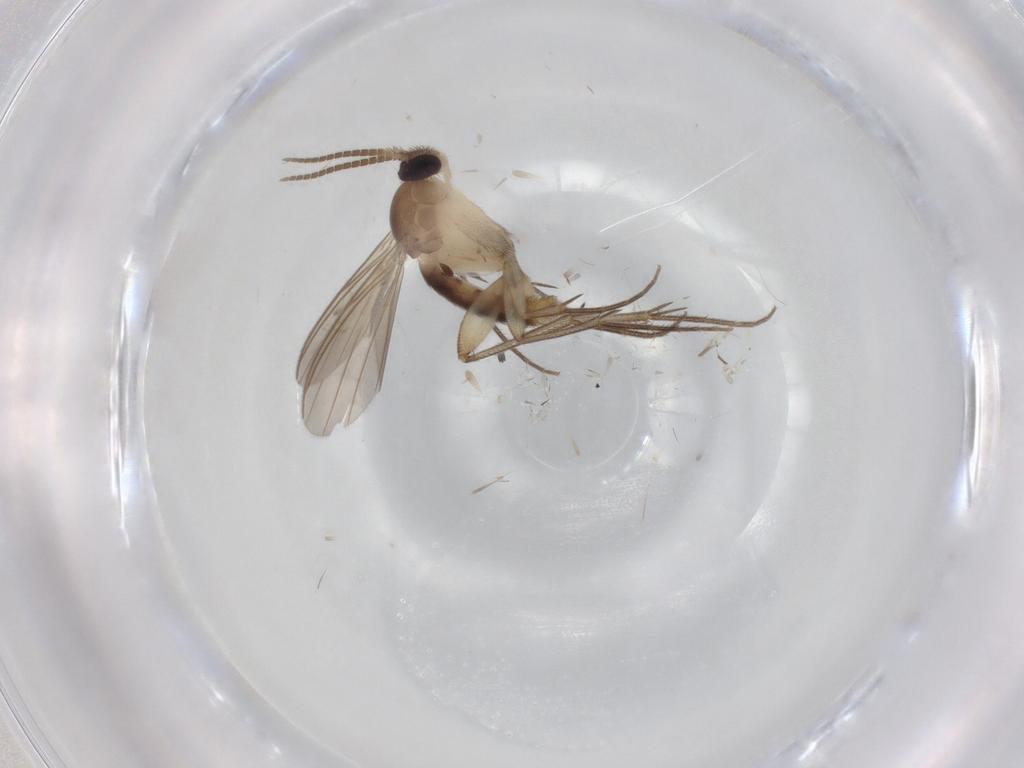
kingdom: Animalia
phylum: Arthropoda
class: Insecta
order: Diptera
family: Mycetophilidae
